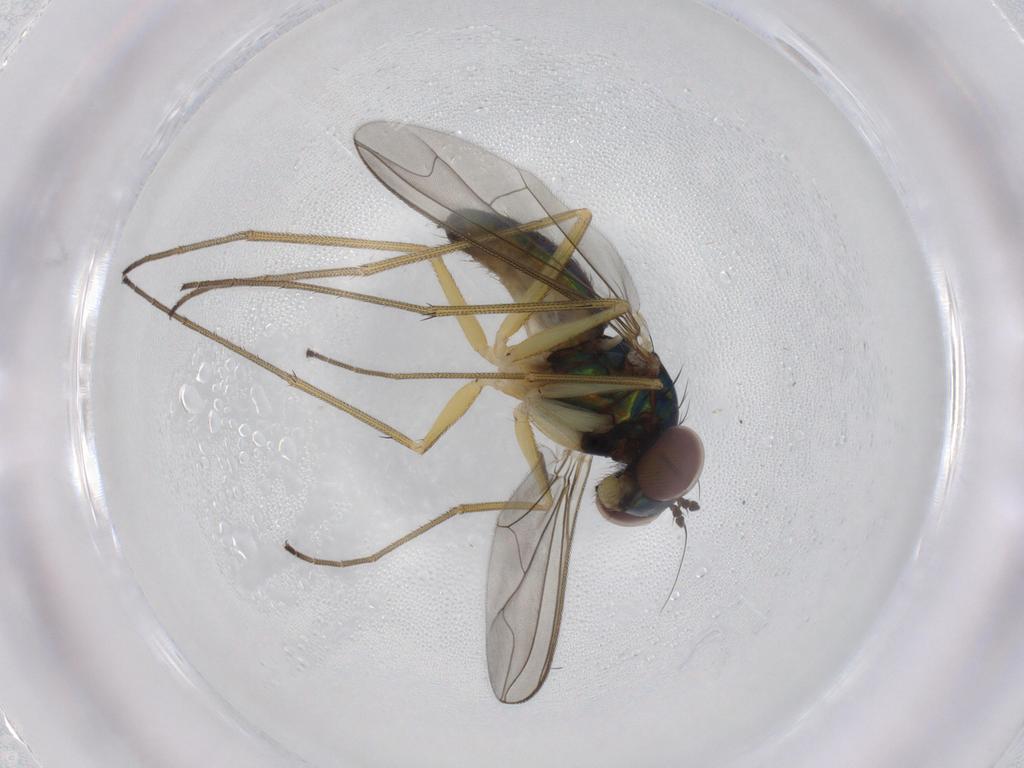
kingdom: Animalia
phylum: Arthropoda
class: Insecta
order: Diptera
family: Dolichopodidae
